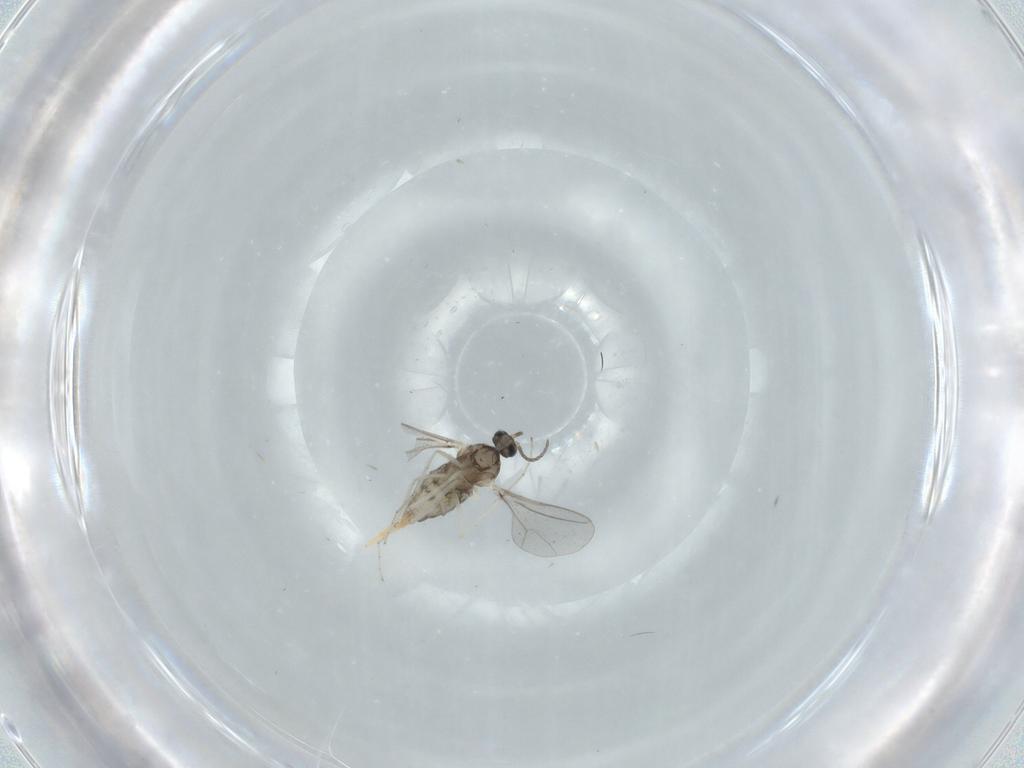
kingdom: Animalia
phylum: Arthropoda
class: Insecta
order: Diptera
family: Cecidomyiidae
